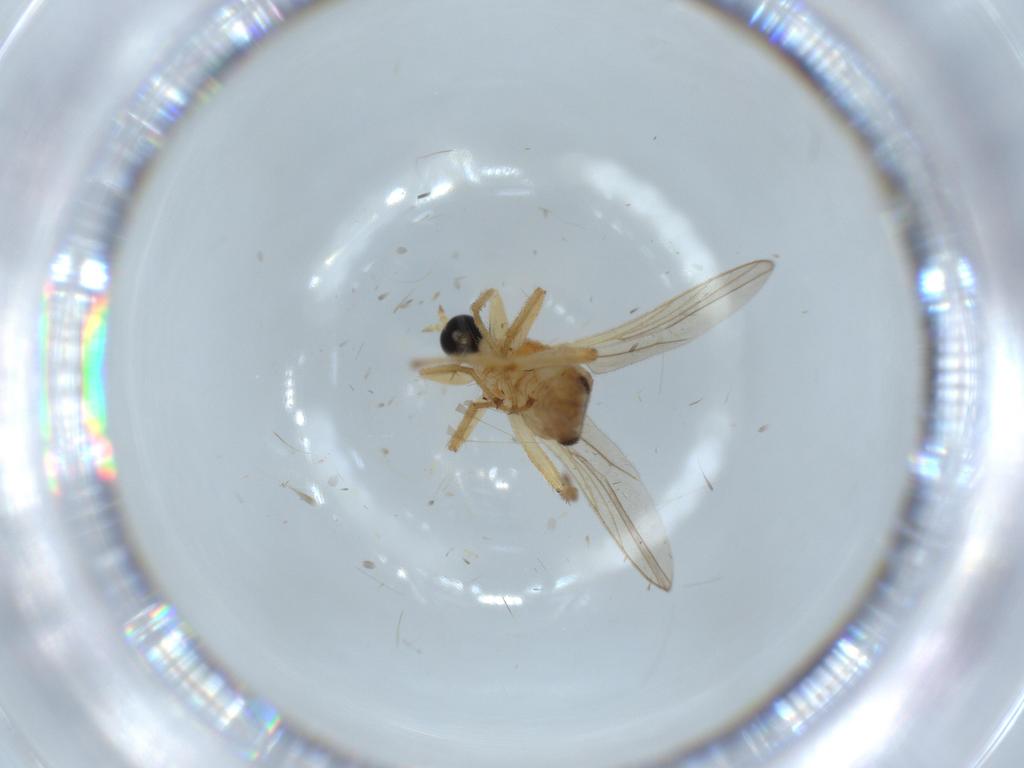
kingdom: Animalia
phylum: Arthropoda
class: Insecta
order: Diptera
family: Hybotidae
